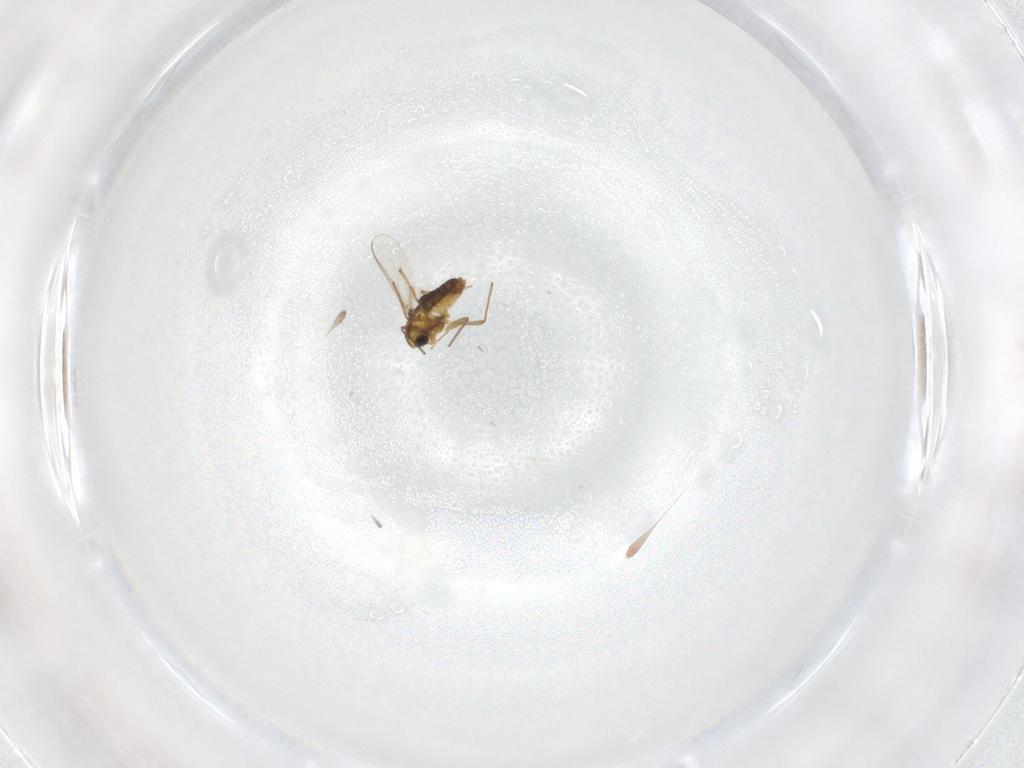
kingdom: Animalia
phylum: Arthropoda
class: Insecta
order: Diptera
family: Chironomidae
